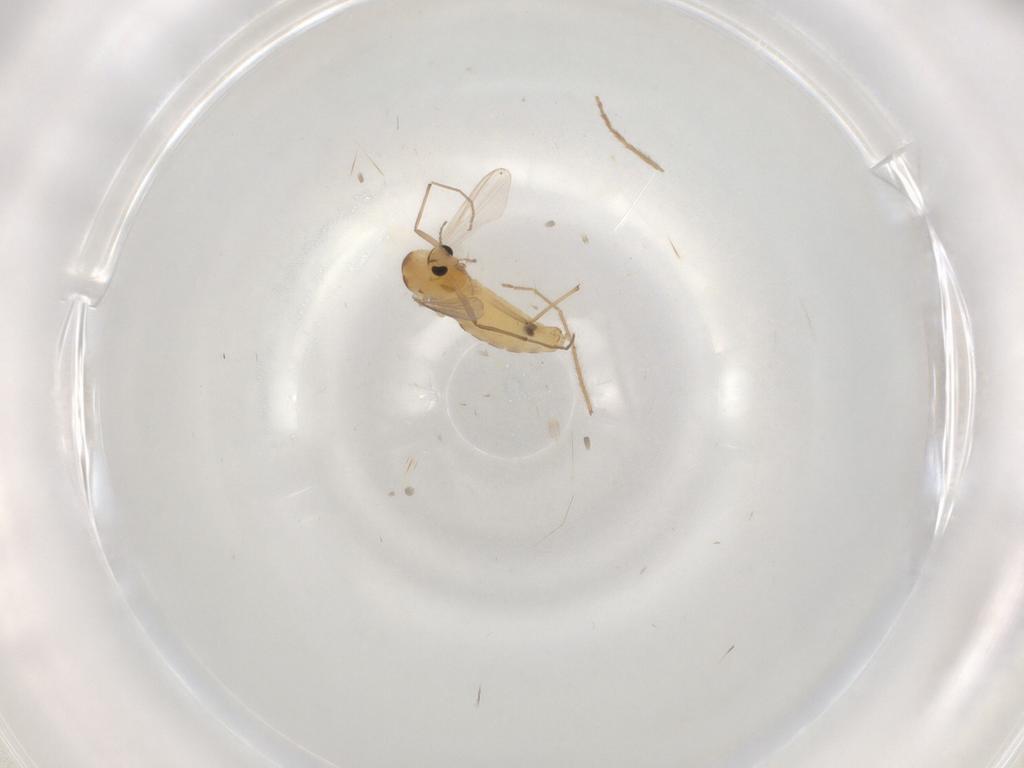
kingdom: Animalia
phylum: Arthropoda
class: Insecta
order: Diptera
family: Chironomidae
